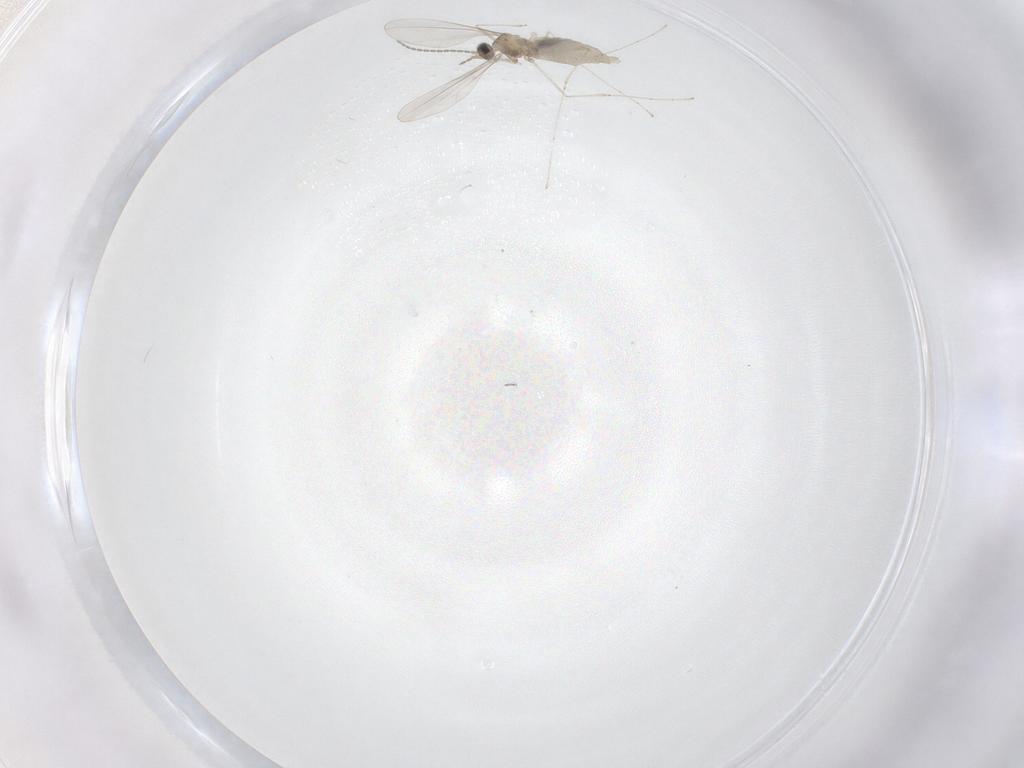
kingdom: Animalia
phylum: Arthropoda
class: Insecta
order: Diptera
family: Cecidomyiidae
